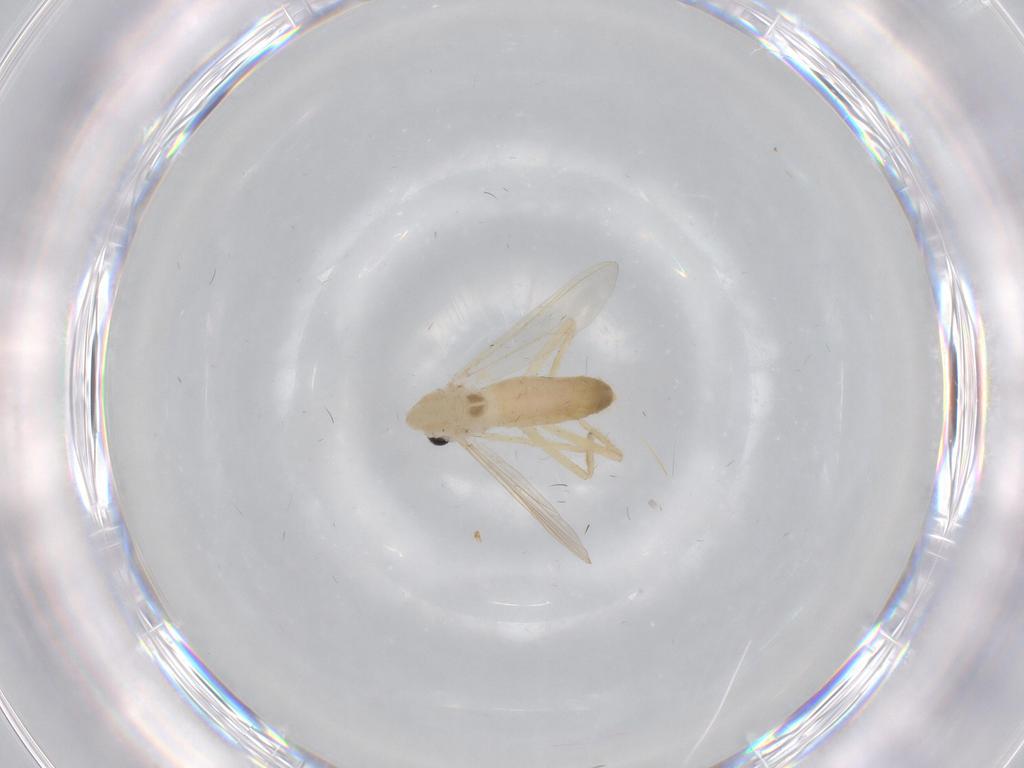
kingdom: Animalia
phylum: Arthropoda
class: Insecta
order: Diptera
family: Chironomidae
